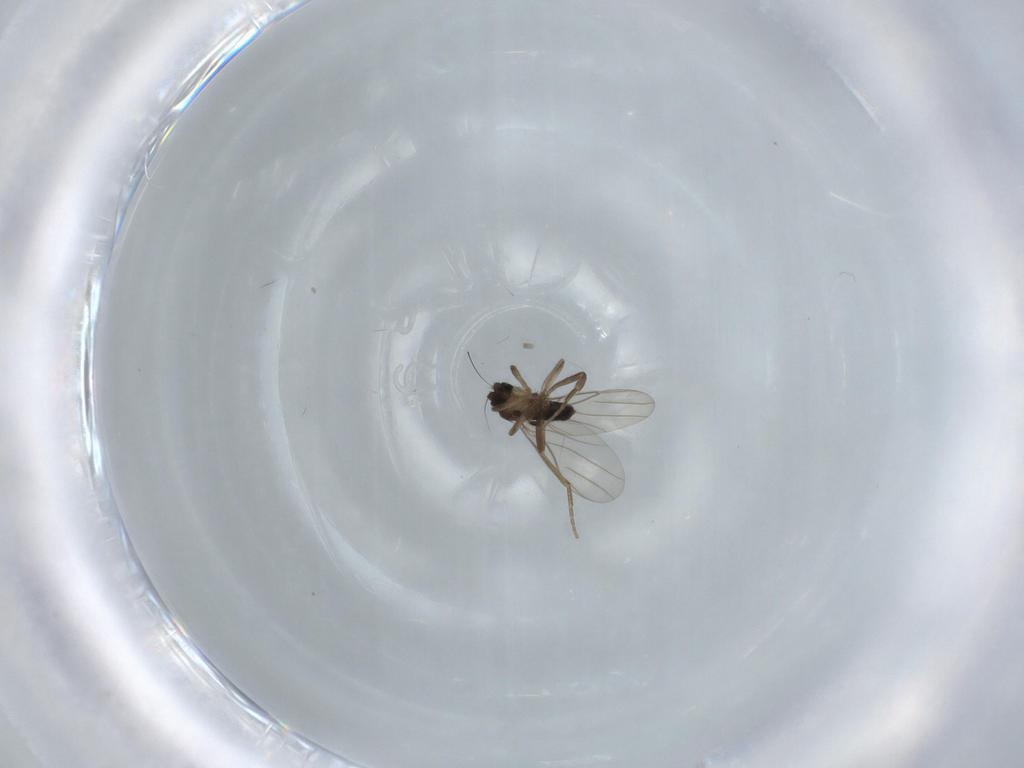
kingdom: Animalia
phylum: Arthropoda
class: Insecta
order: Diptera
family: Phoridae
